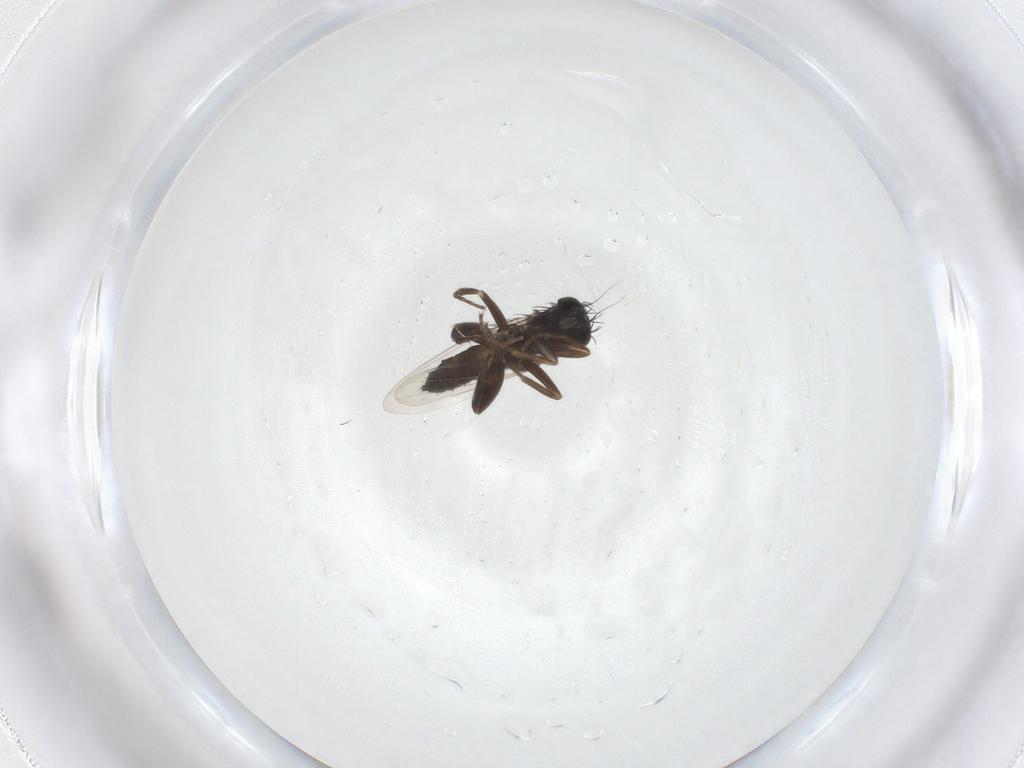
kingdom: Animalia
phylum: Arthropoda
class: Insecta
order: Diptera
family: Phoridae
